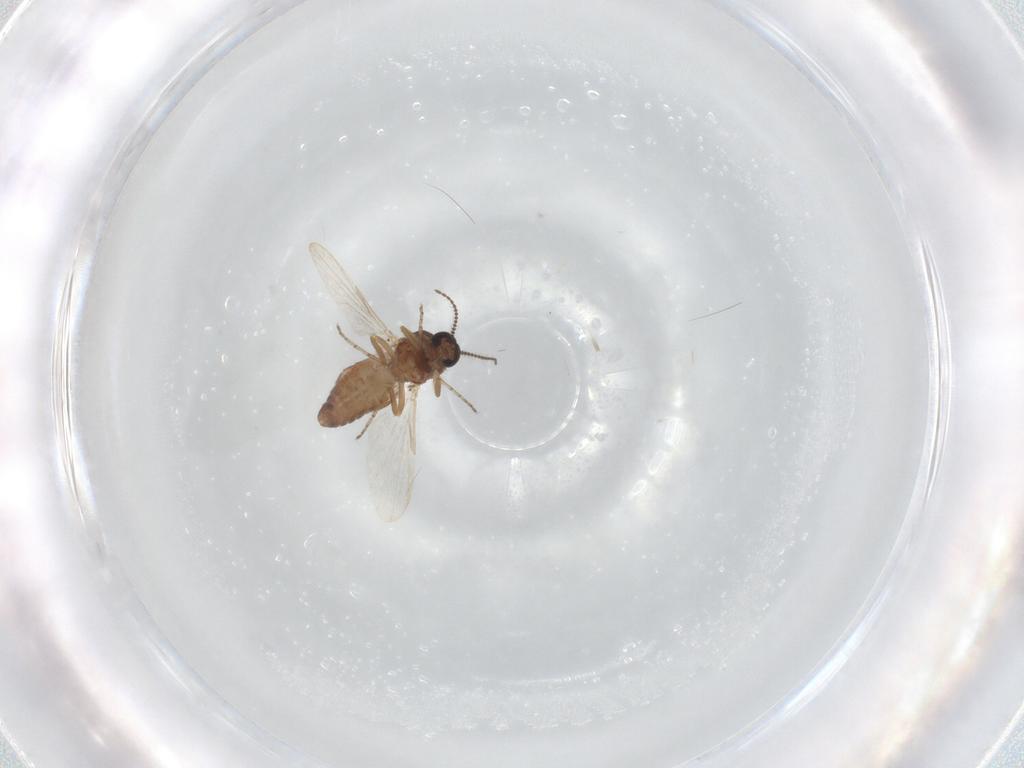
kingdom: Animalia
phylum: Arthropoda
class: Insecta
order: Diptera
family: Ceratopogonidae
